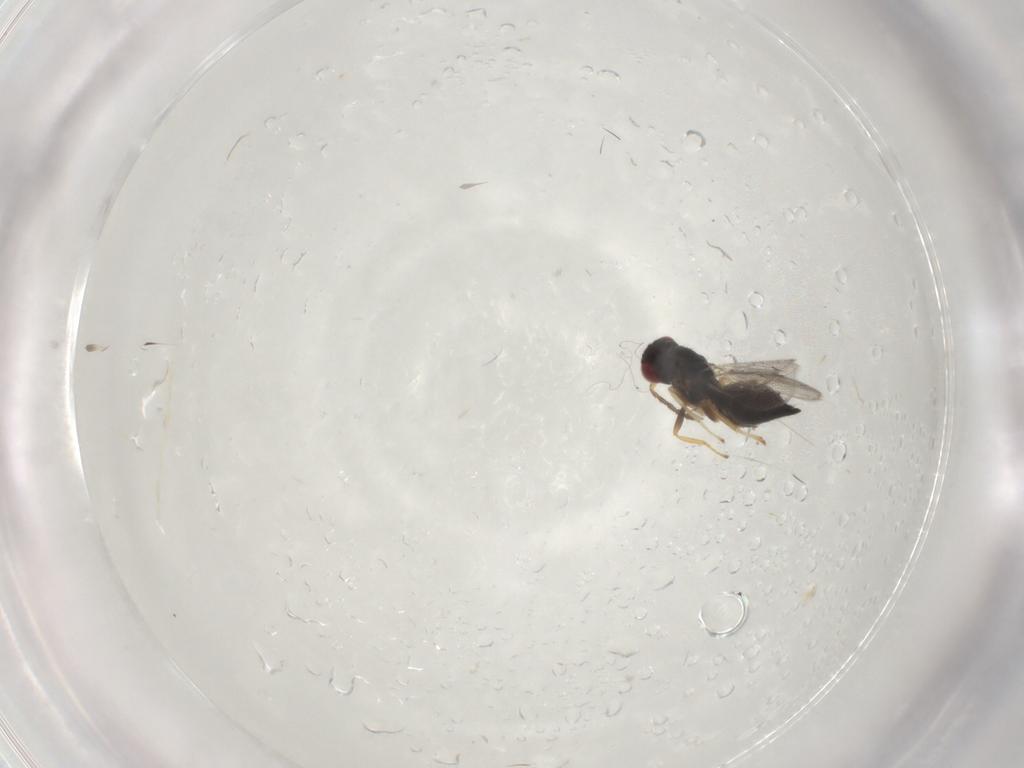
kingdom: Animalia
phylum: Arthropoda
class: Insecta
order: Hymenoptera
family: Eulophidae
